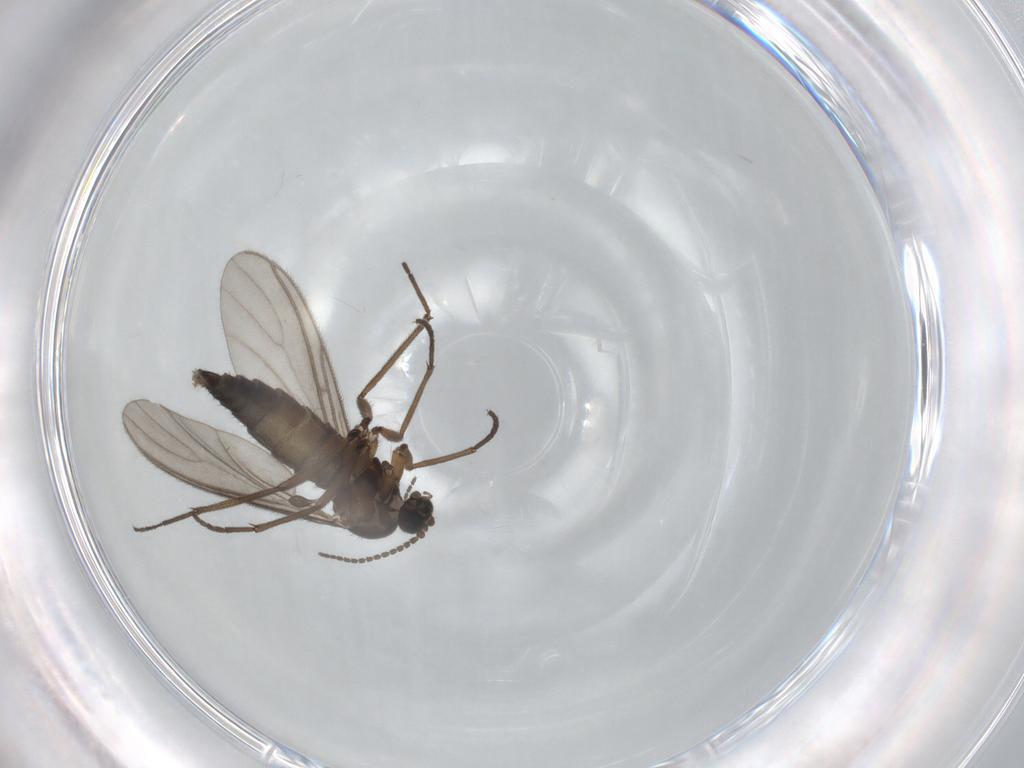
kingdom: Animalia
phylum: Arthropoda
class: Insecta
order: Diptera
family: Sciaridae
